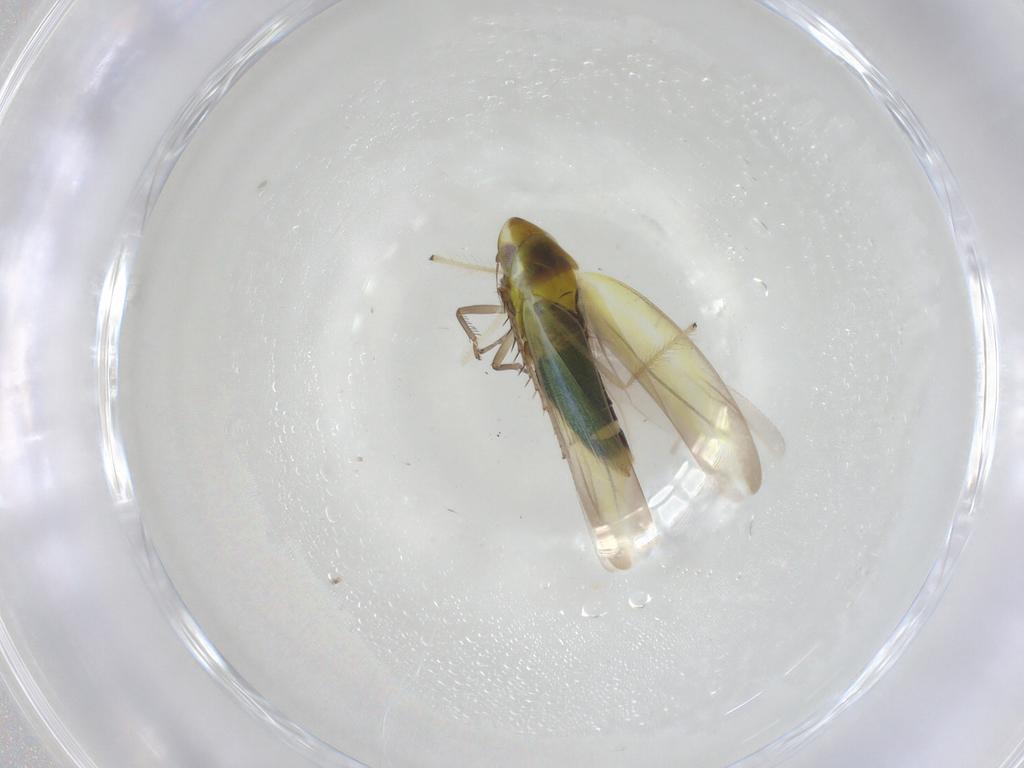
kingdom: Animalia
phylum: Arthropoda
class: Insecta
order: Hemiptera
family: Cicadellidae
